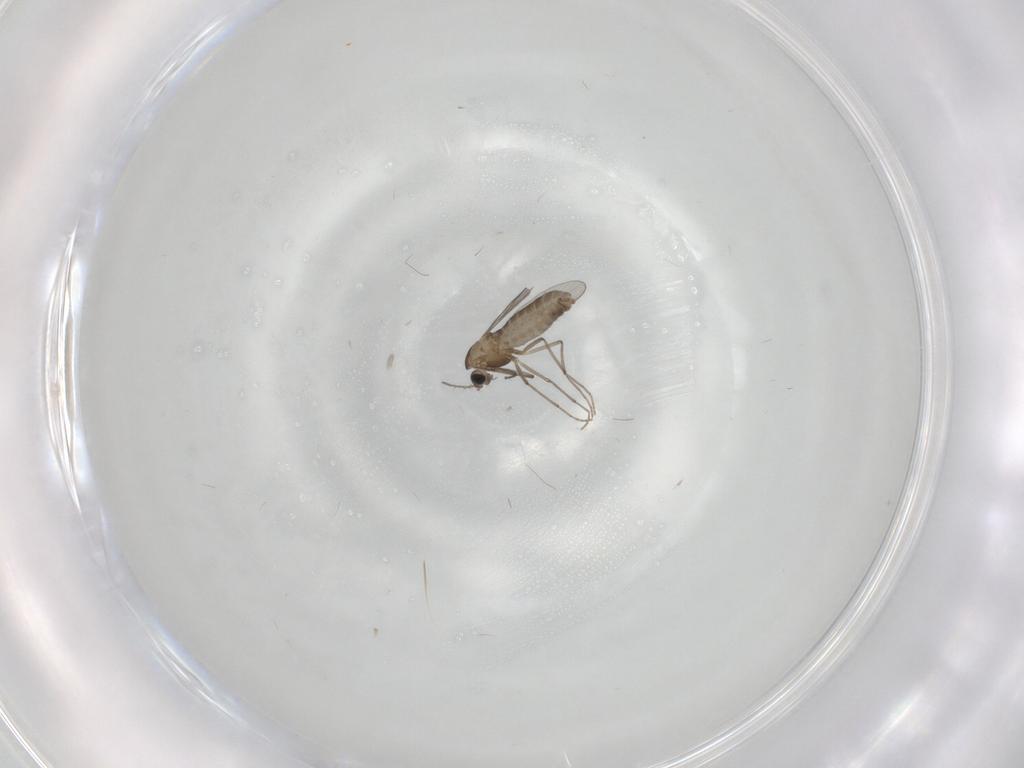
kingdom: Animalia
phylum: Arthropoda
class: Insecta
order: Diptera
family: Chironomidae
